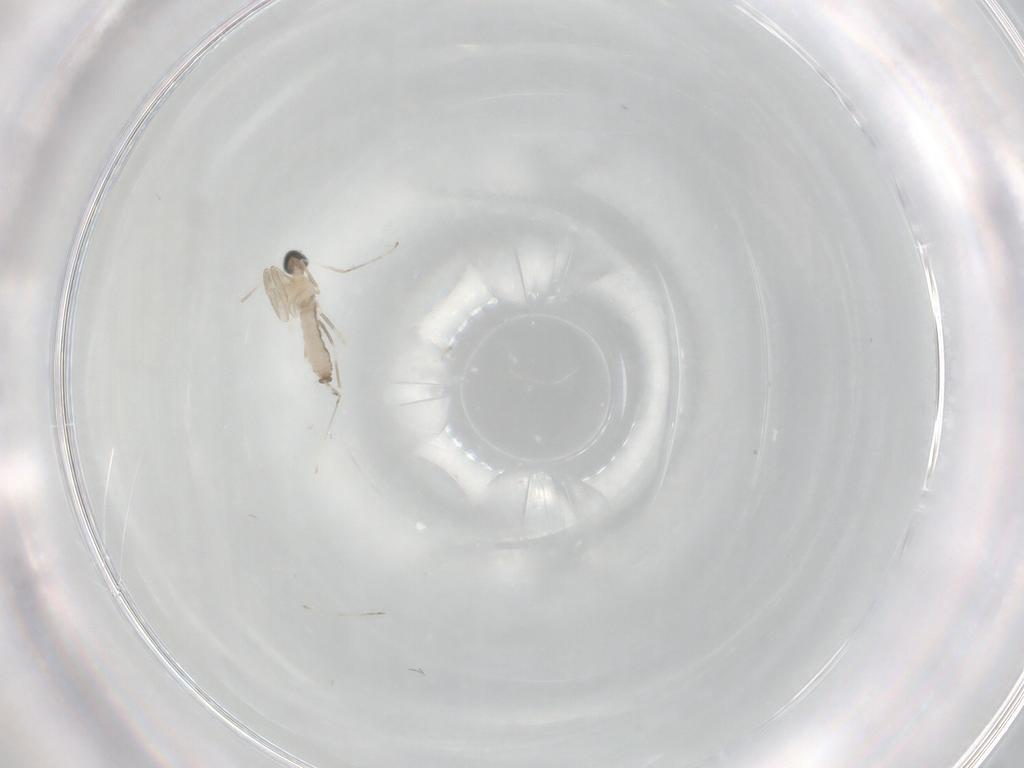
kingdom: Animalia
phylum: Arthropoda
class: Insecta
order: Diptera
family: Cecidomyiidae
